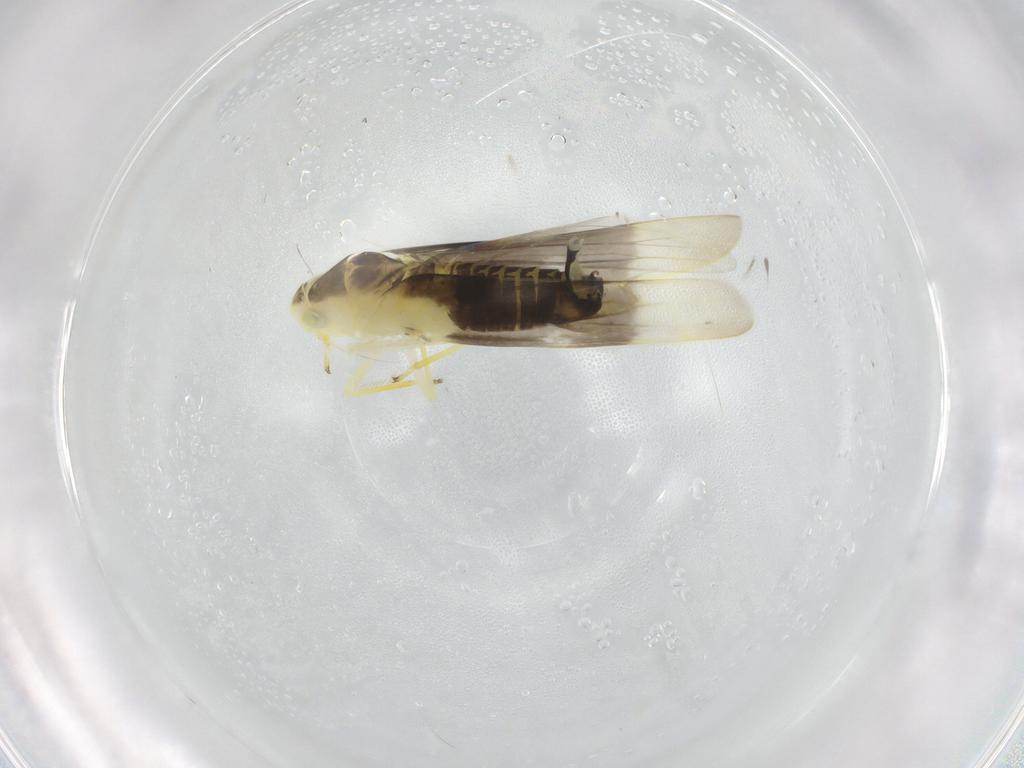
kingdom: Animalia
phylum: Arthropoda
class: Insecta
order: Hemiptera
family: Cicadellidae
